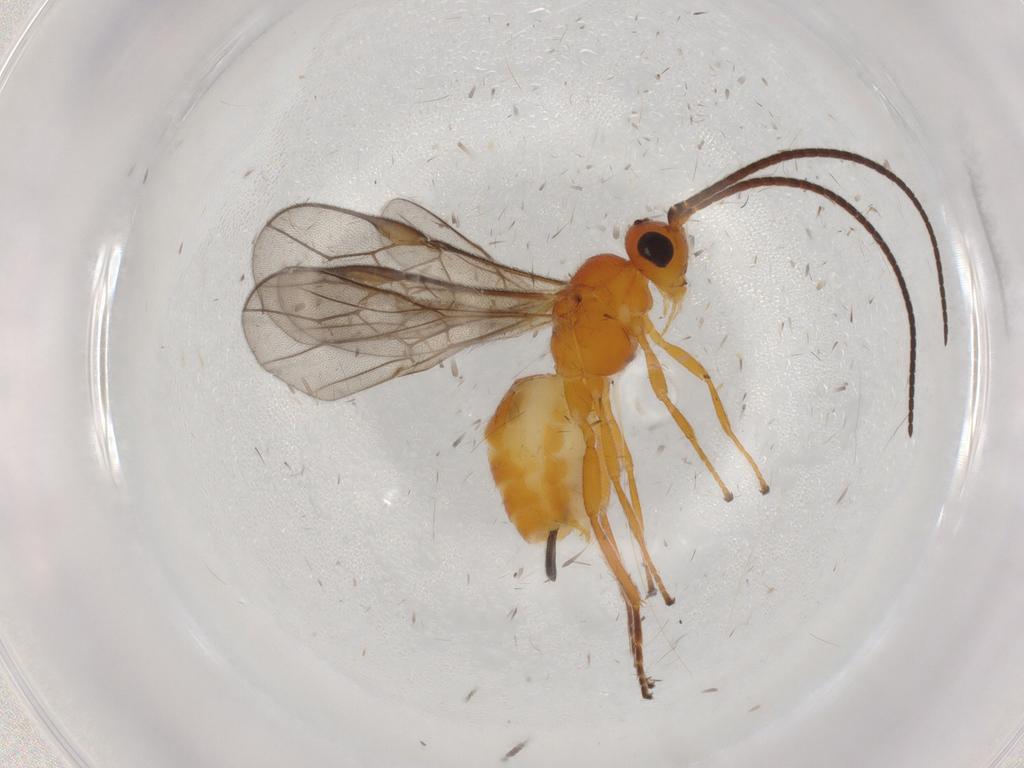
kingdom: Animalia
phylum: Arthropoda
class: Insecta
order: Hymenoptera
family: Braconidae
